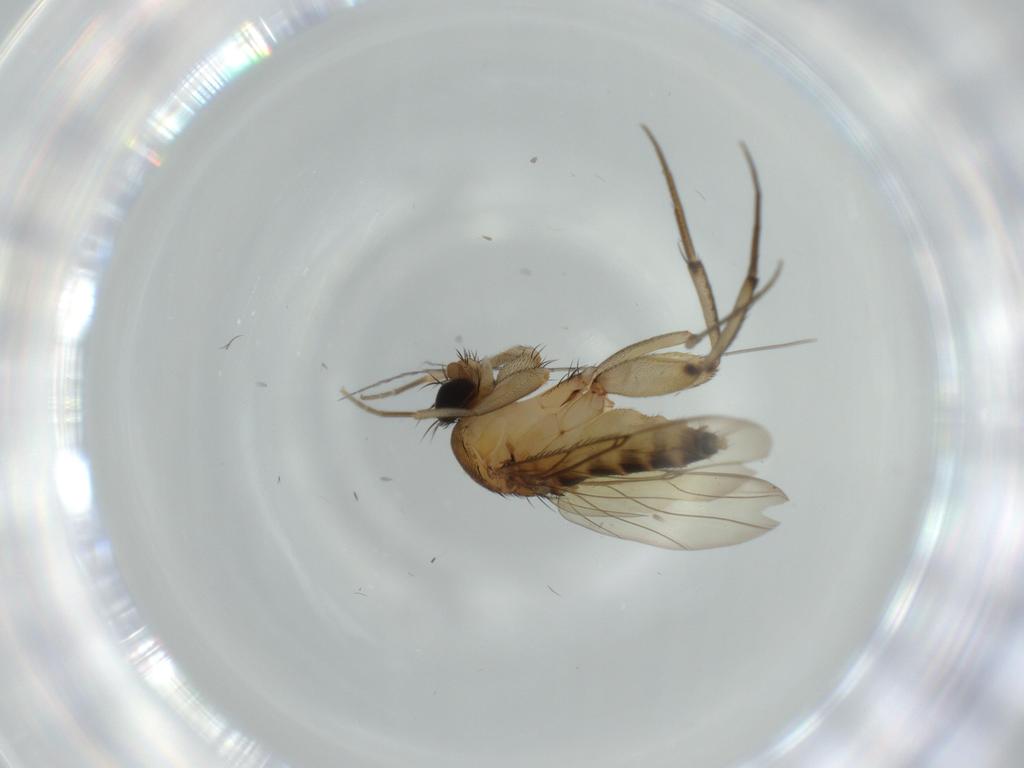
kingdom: Animalia
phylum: Arthropoda
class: Insecta
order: Diptera
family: Phoridae
